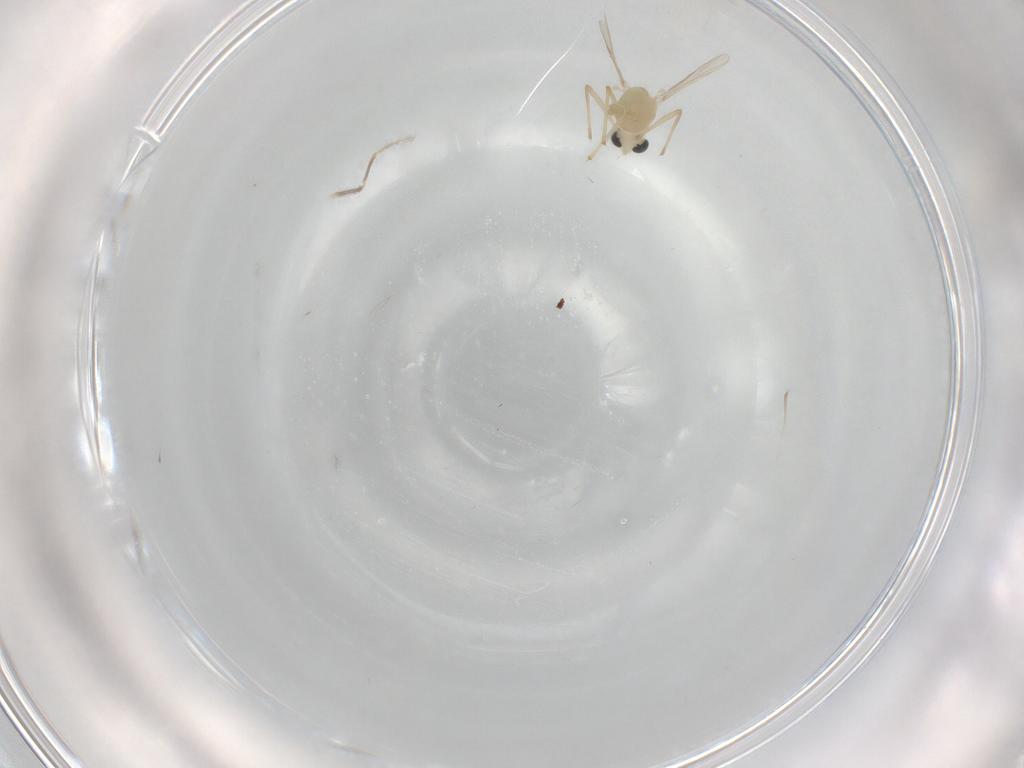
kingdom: Animalia
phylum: Arthropoda
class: Insecta
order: Diptera
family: Chironomidae
